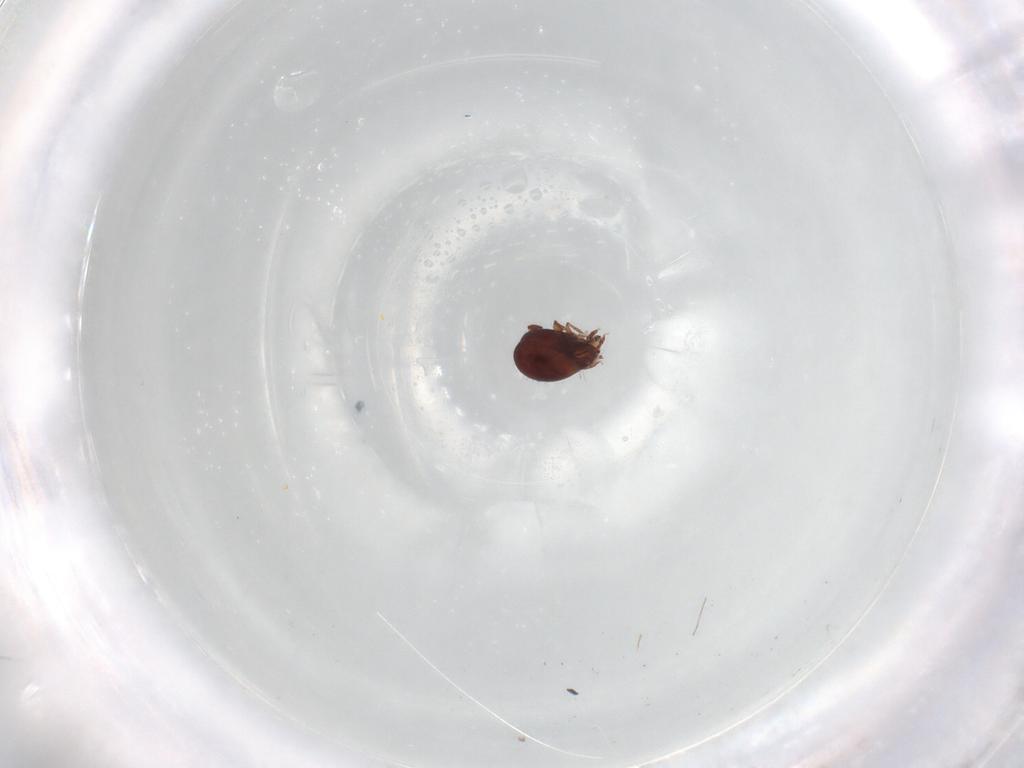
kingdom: Animalia
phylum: Arthropoda
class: Arachnida
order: Sarcoptiformes
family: Humerobatidae
